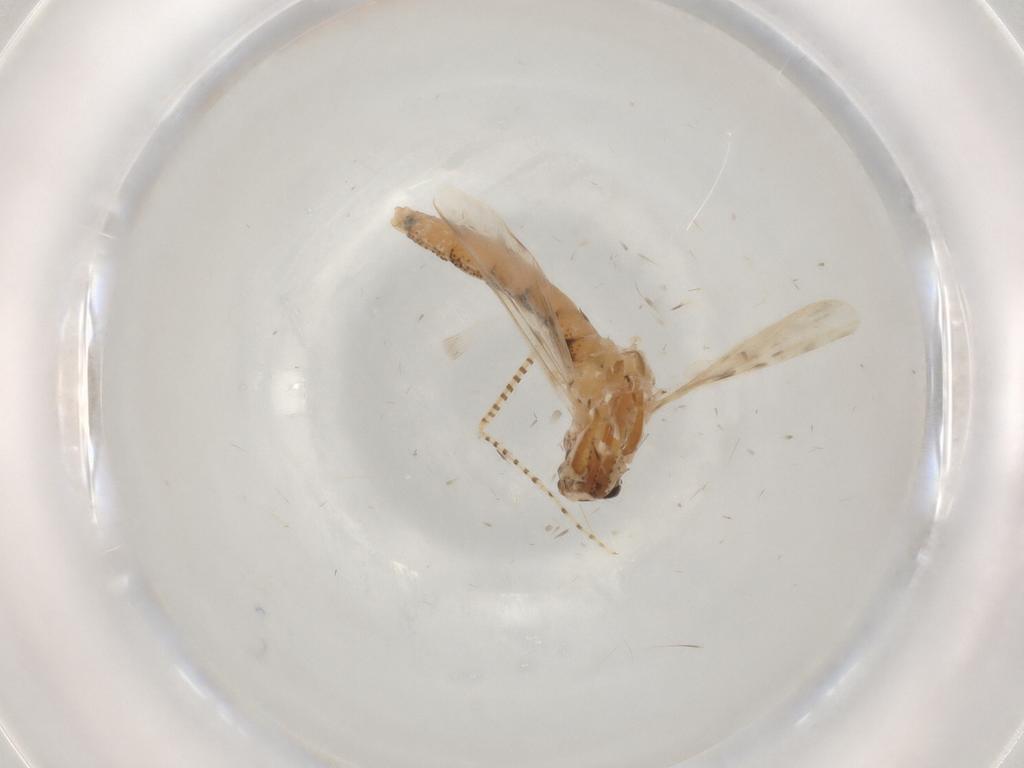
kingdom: Animalia
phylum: Arthropoda
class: Insecta
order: Diptera
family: Chaoboridae
